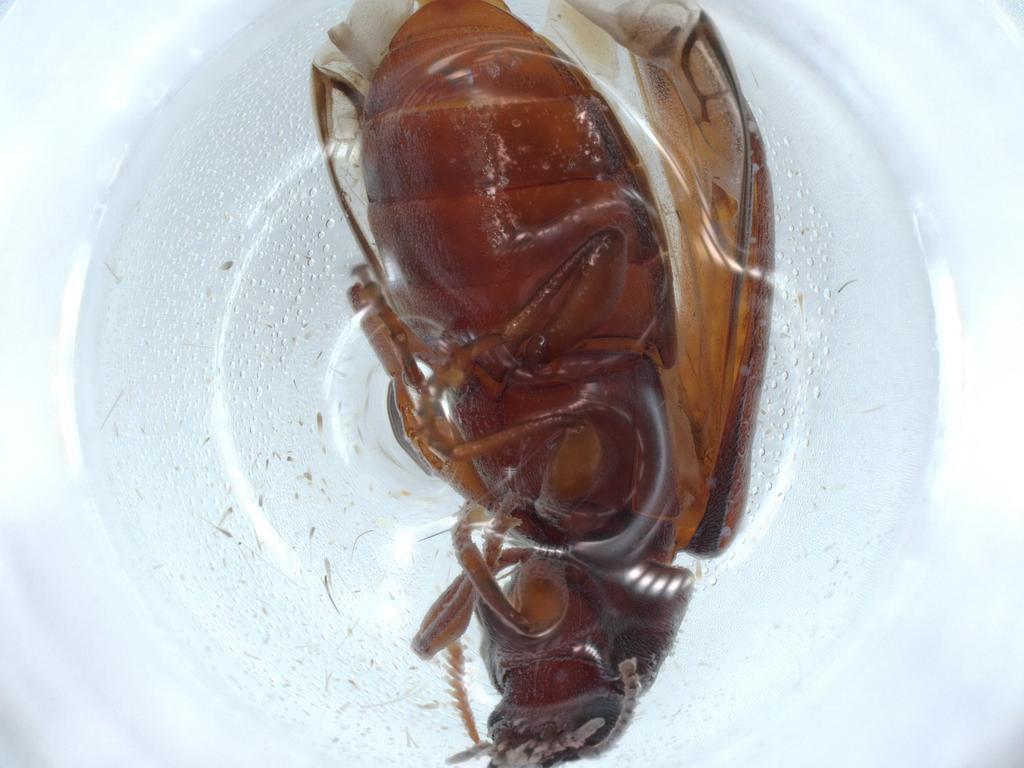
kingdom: Animalia
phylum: Arthropoda
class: Insecta
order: Coleoptera
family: Mycteridae
